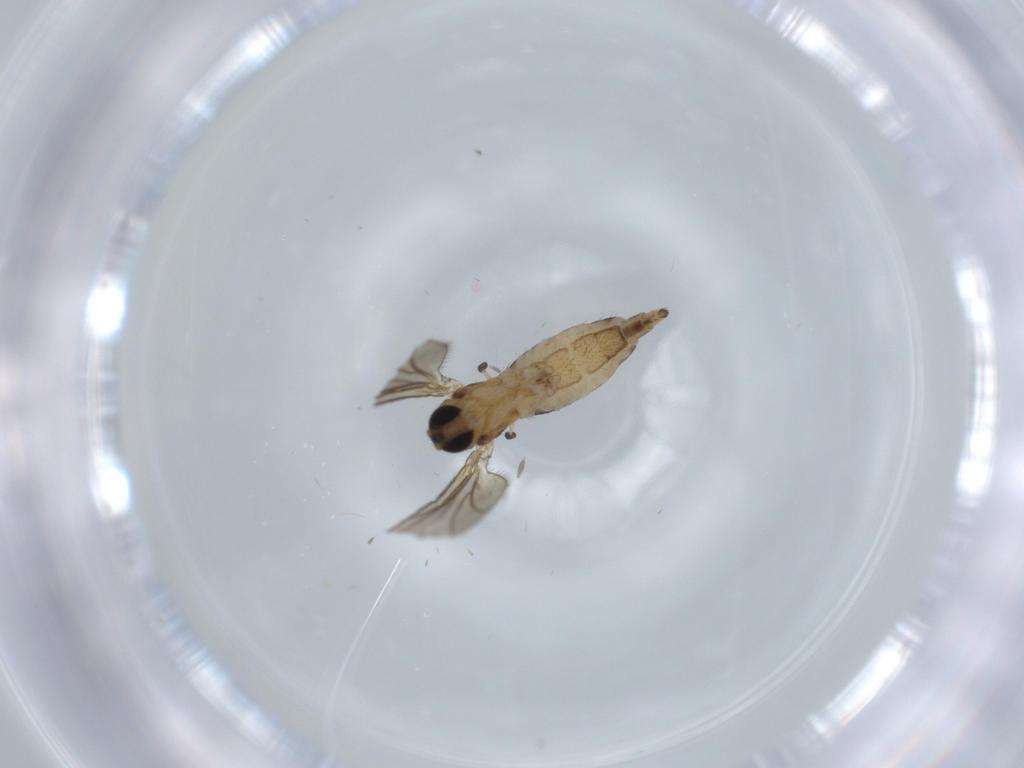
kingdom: Animalia
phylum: Arthropoda
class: Insecta
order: Diptera
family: Sciaridae
